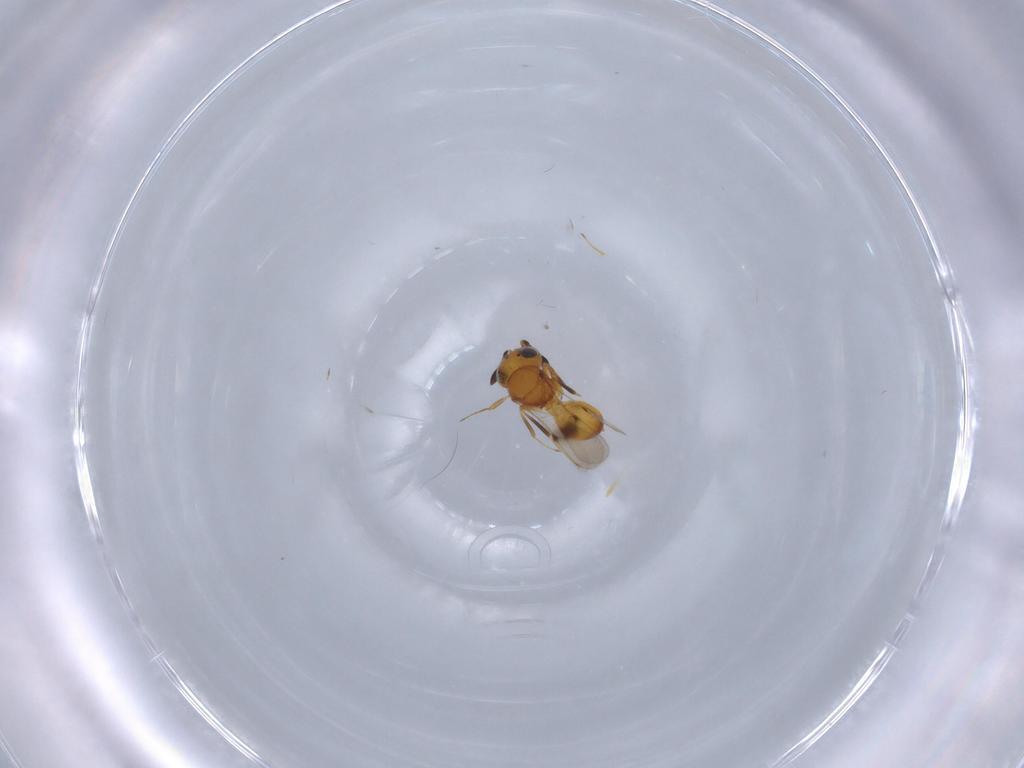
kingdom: Animalia
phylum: Arthropoda
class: Insecta
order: Hymenoptera
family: Scelionidae
